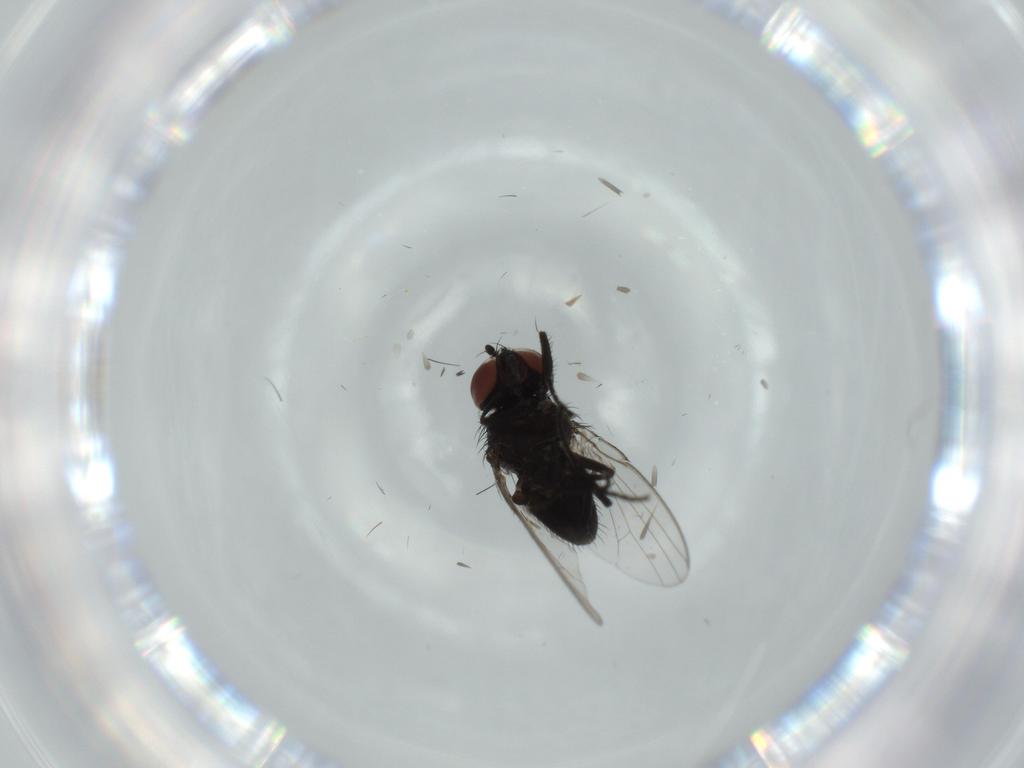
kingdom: Animalia
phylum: Arthropoda
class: Insecta
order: Diptera
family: Milichiidae
